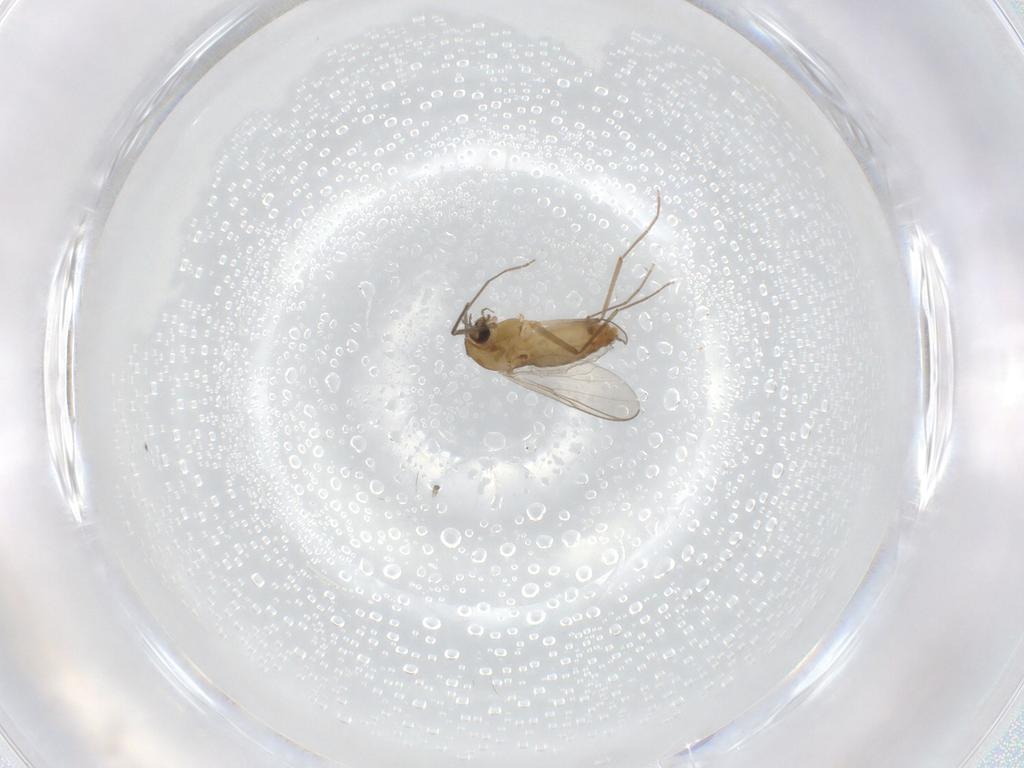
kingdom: Animalia
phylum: Arthropoda
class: Insecta
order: Diptera
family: Chironomidae
